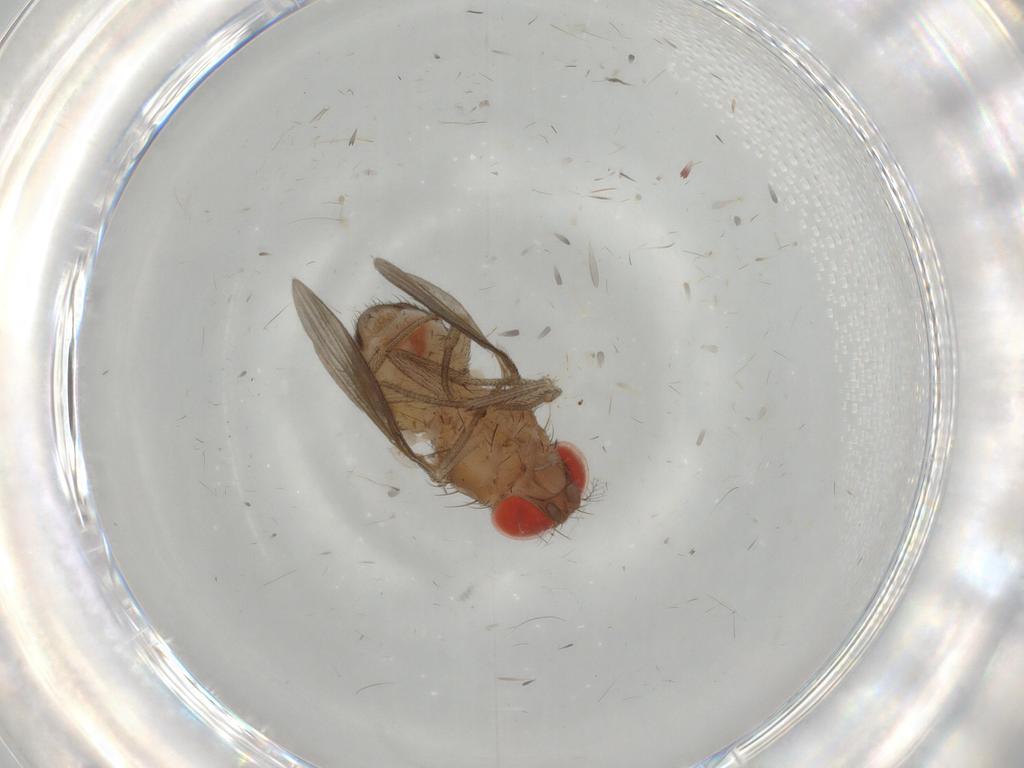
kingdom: Animalia
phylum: Arthropoda
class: Insecta
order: Diptera
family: Drosophilidae
